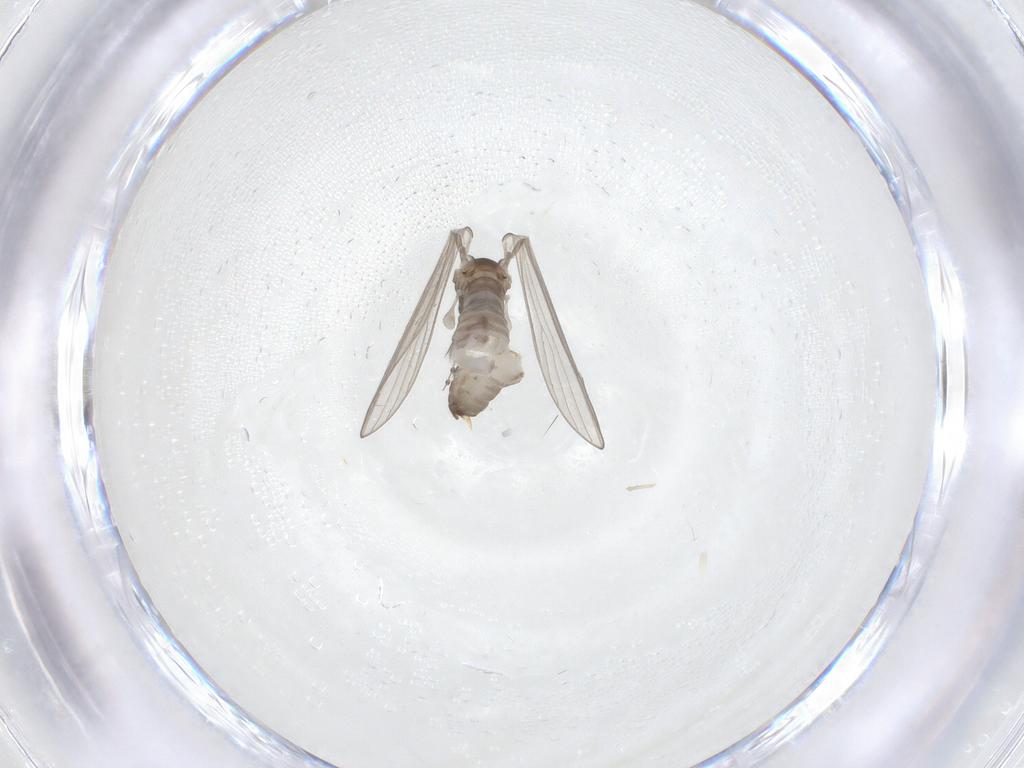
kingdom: Animalia
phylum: Arthropoda
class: Insecta
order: Diptera
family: Psychodidae
